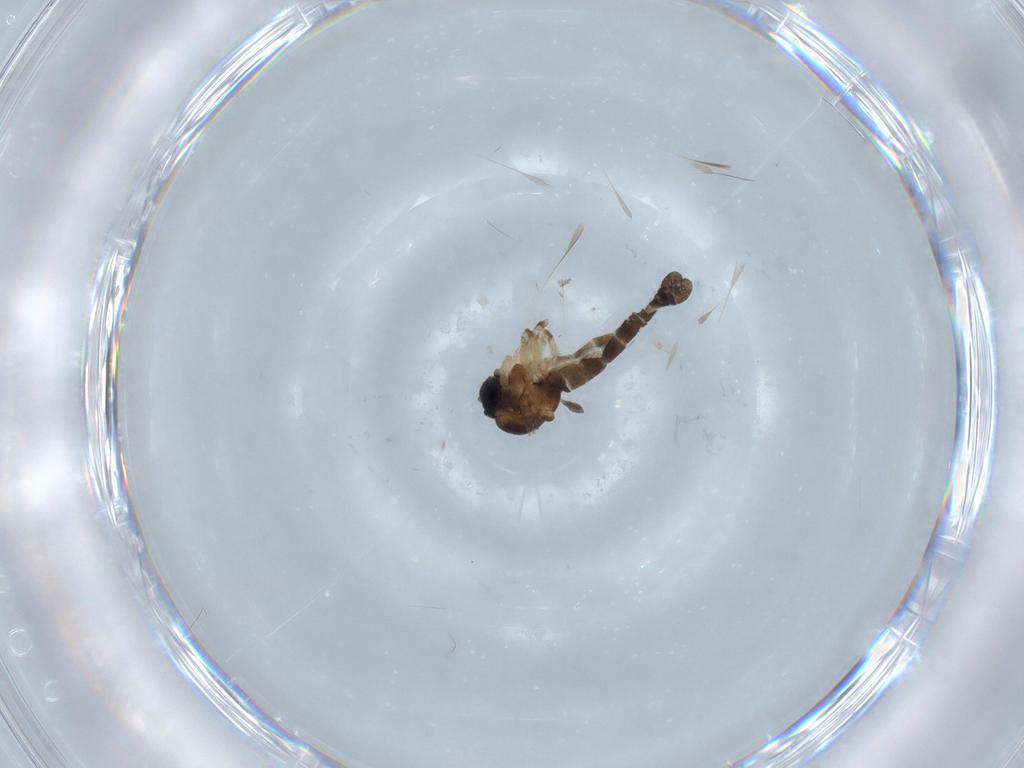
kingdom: Animalia
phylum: Arthropoda
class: Insecta
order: Diptera
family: Sciaridae
